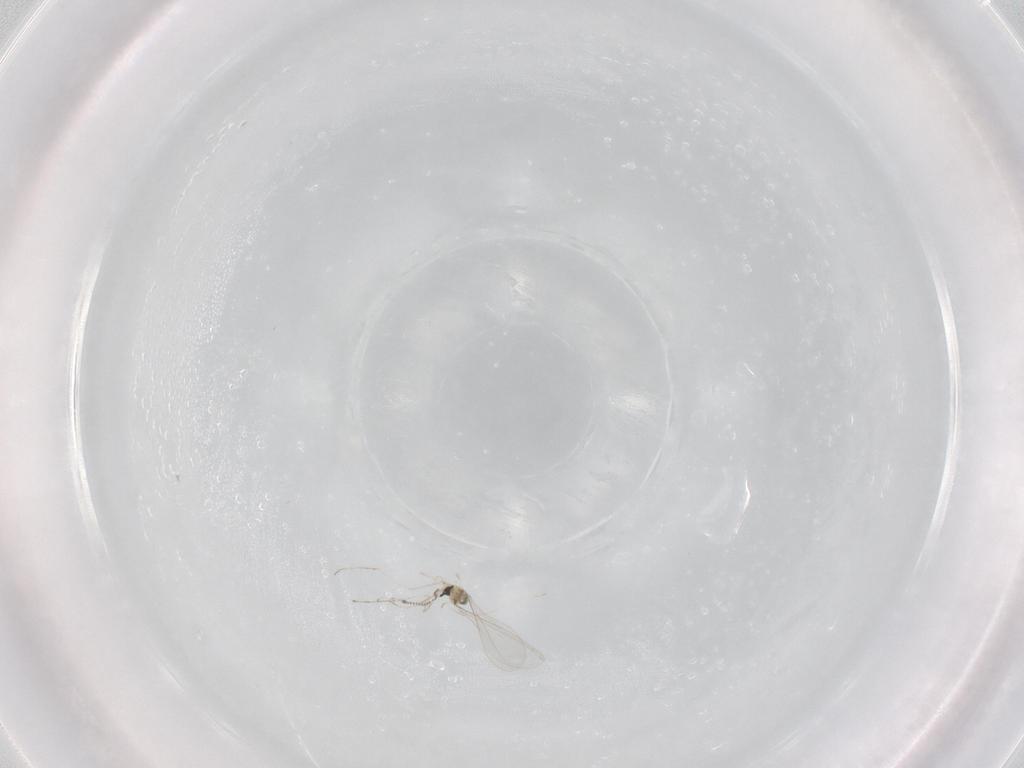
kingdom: Animalia
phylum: Arthropoda
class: Insecta
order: Diptera
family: Cecidomyiidae
